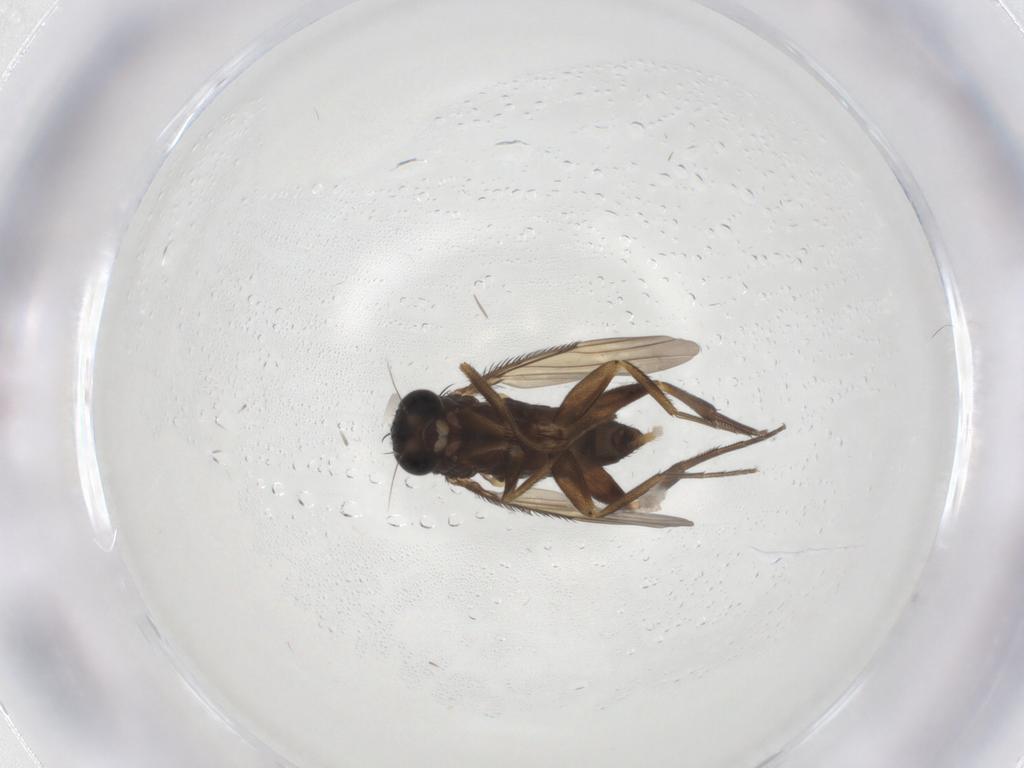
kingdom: Animalia
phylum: Arthropoda
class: Insecta
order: Diptera
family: Phoridae
